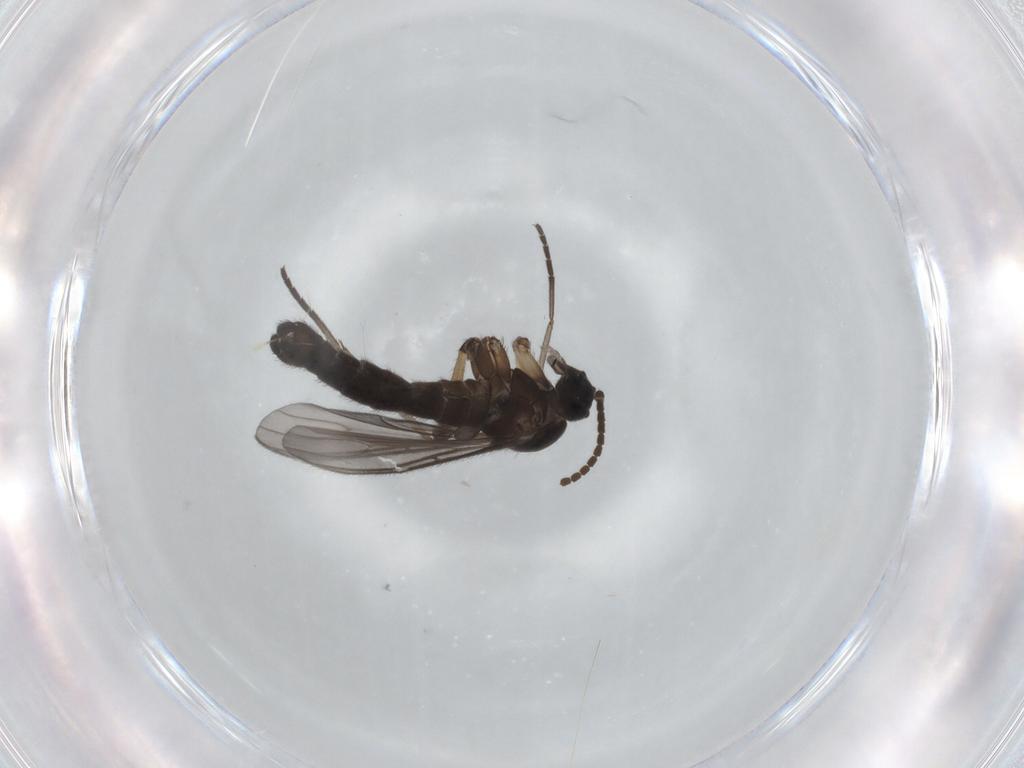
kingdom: Animalia
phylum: Arthropoda
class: Insecta
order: Diptera
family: Sciaridae
